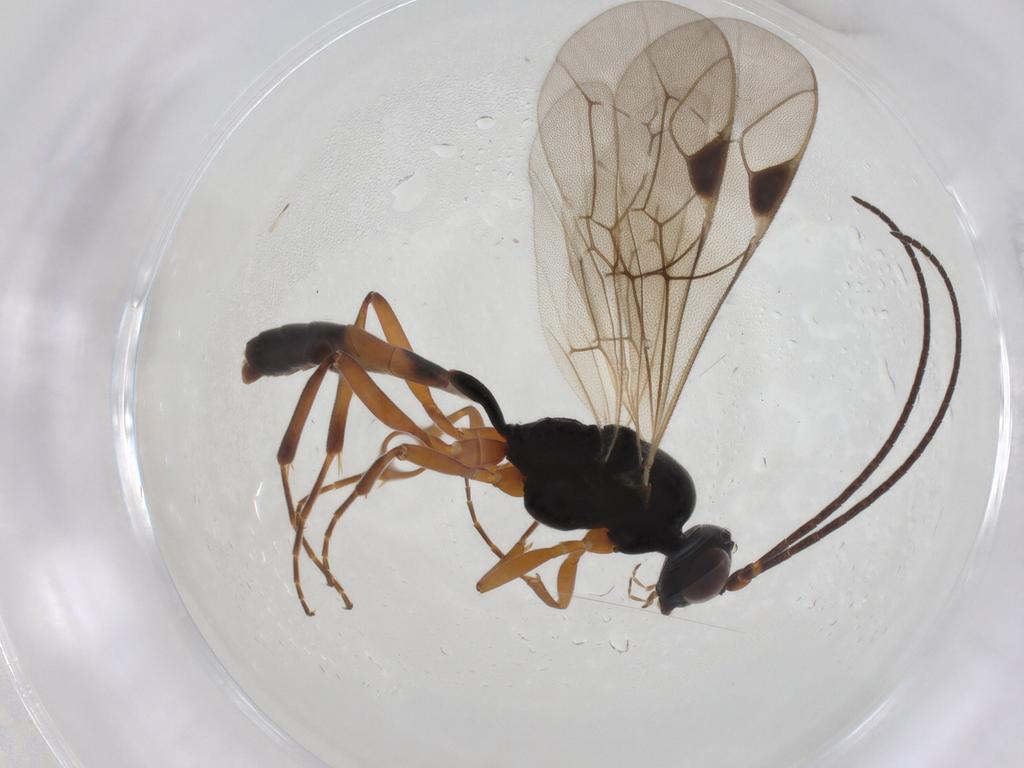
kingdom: Animalia
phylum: Arthropoda
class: Insecta
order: Hymenoptera
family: Ichneumonidae
